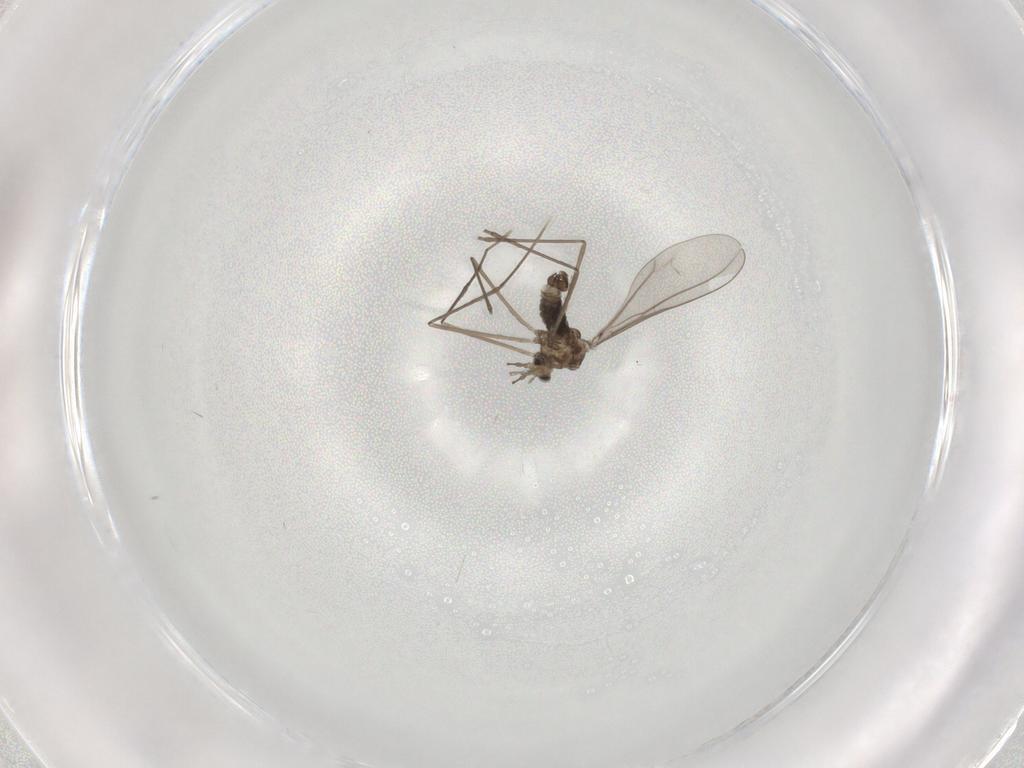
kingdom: Animalia
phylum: Arthropoda
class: Insecta
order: Diptera
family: Cecidomyiidae
